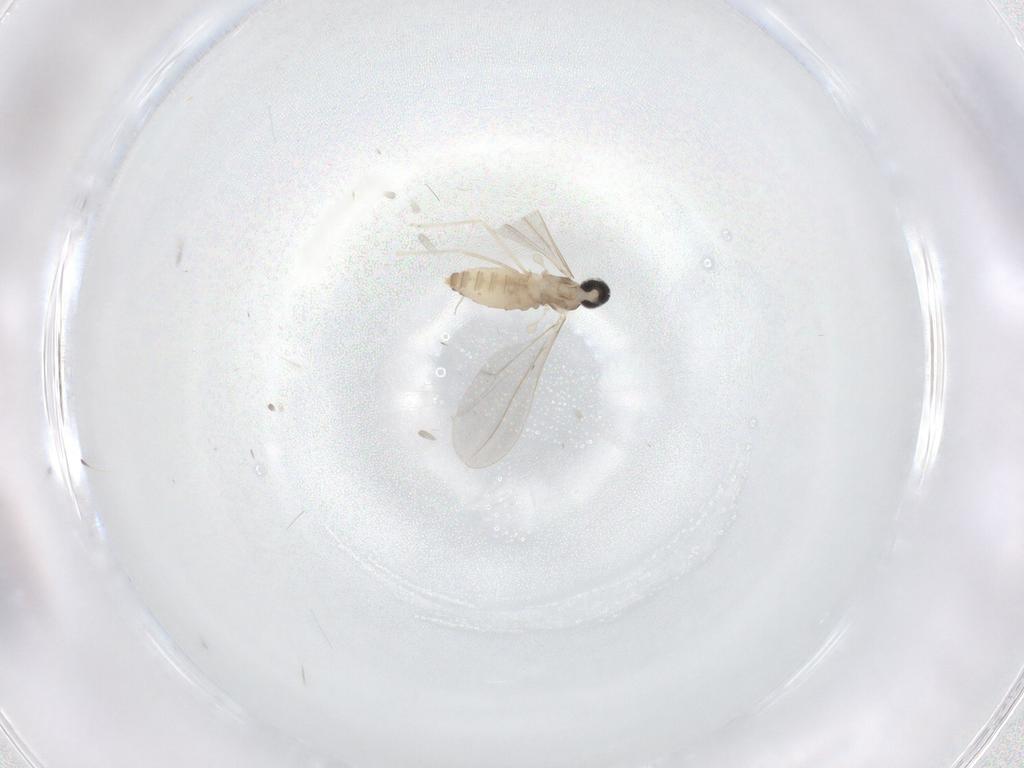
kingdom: Animalia
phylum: Arthropoda
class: Insecta
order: Diptera
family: Cecidomyiidae
